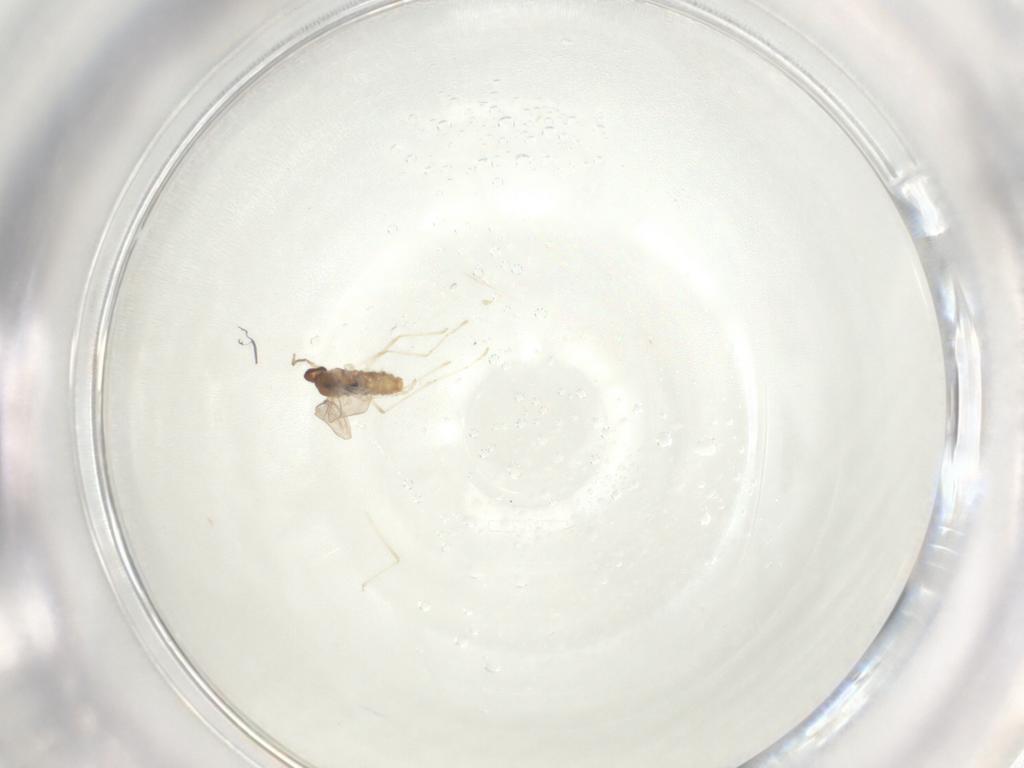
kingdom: Animalia
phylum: Arthropoda
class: Insecta
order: Diptera
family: Cecidomyiidae
